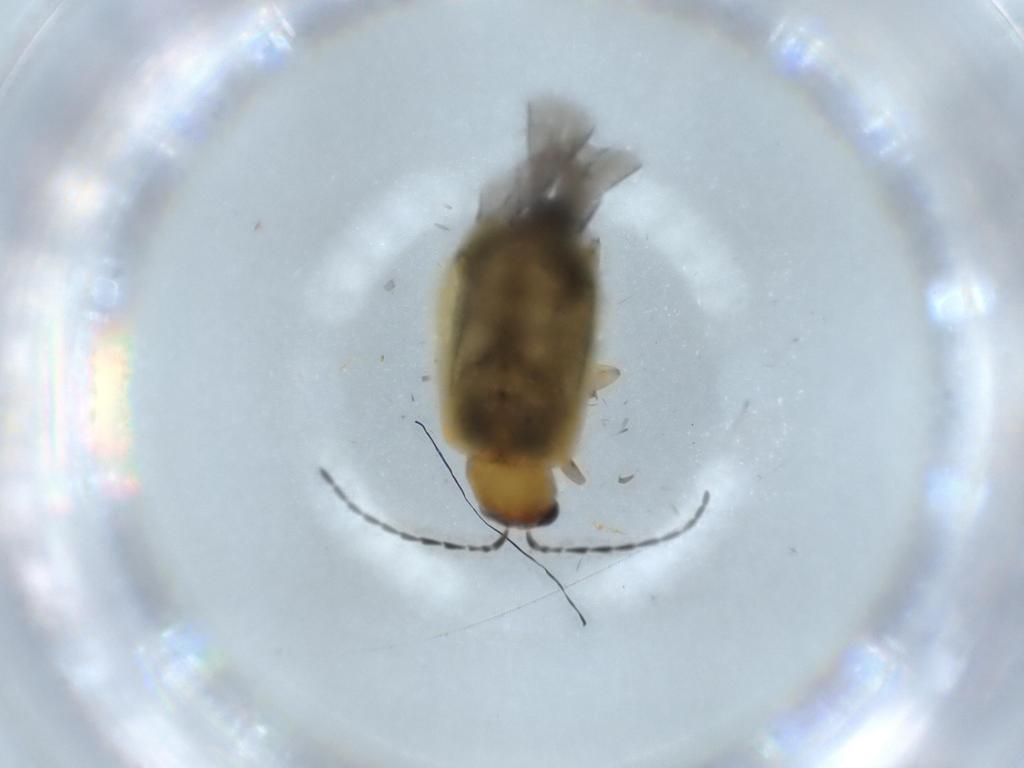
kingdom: Animalia
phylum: Arthropoda
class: Insecta
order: Coleoptera
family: Chrysomelidae
